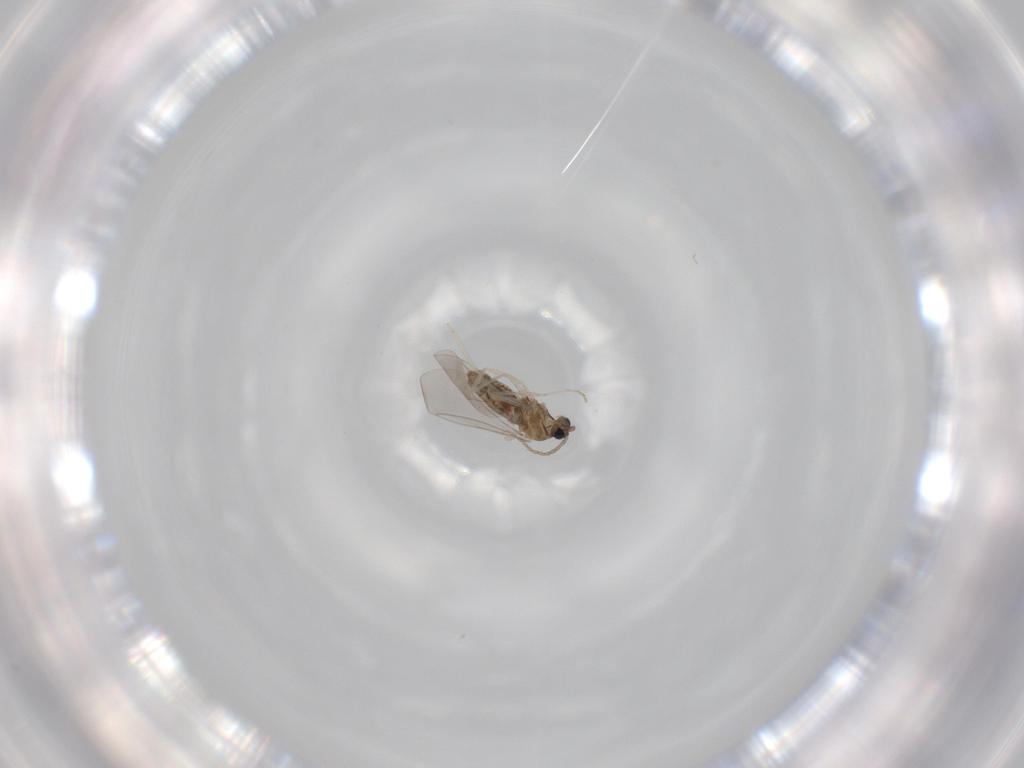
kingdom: Animalia
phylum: Arthropoda
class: Insecta
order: Diptera
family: Cecidomyiidae
